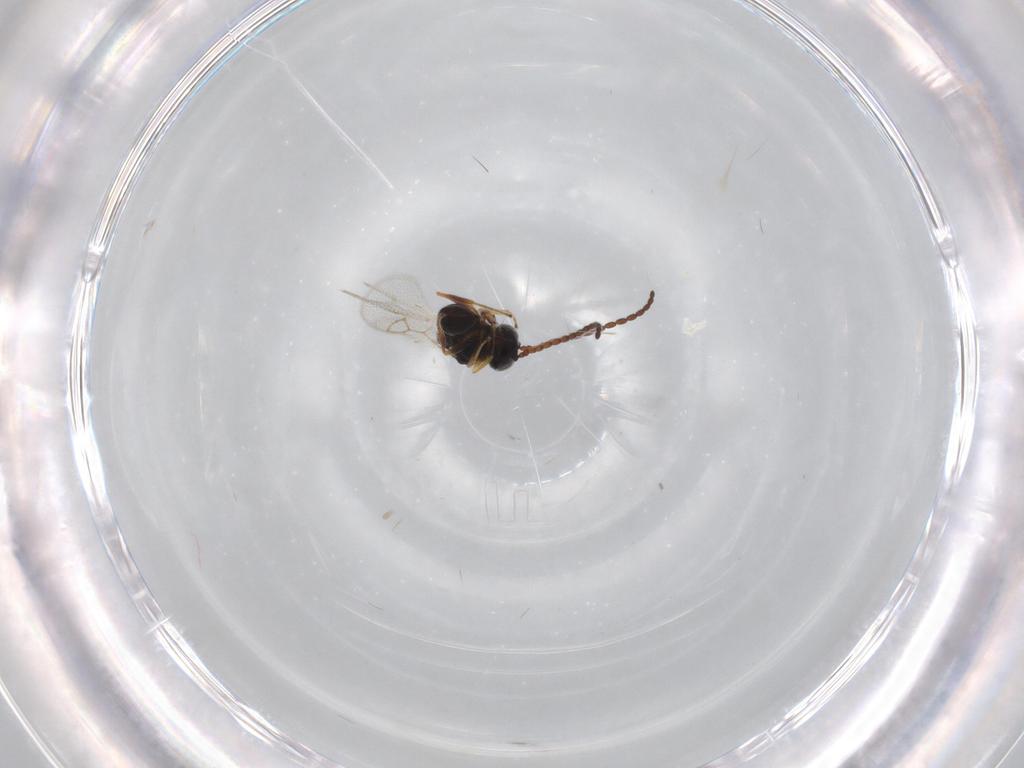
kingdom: Animalia
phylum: Arthropoda
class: Insecta
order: Hymenoptera
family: Figitidae
